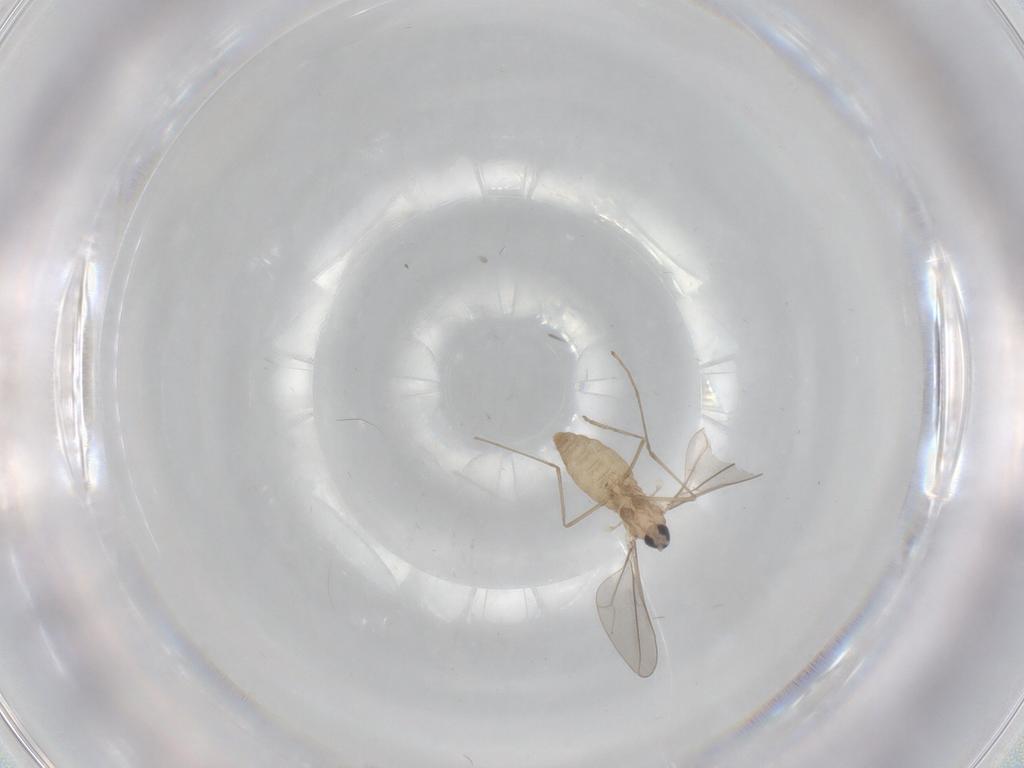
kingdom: Animalia
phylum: Arthropoda
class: Insecta
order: Diptera
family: Cecidomyiidae
